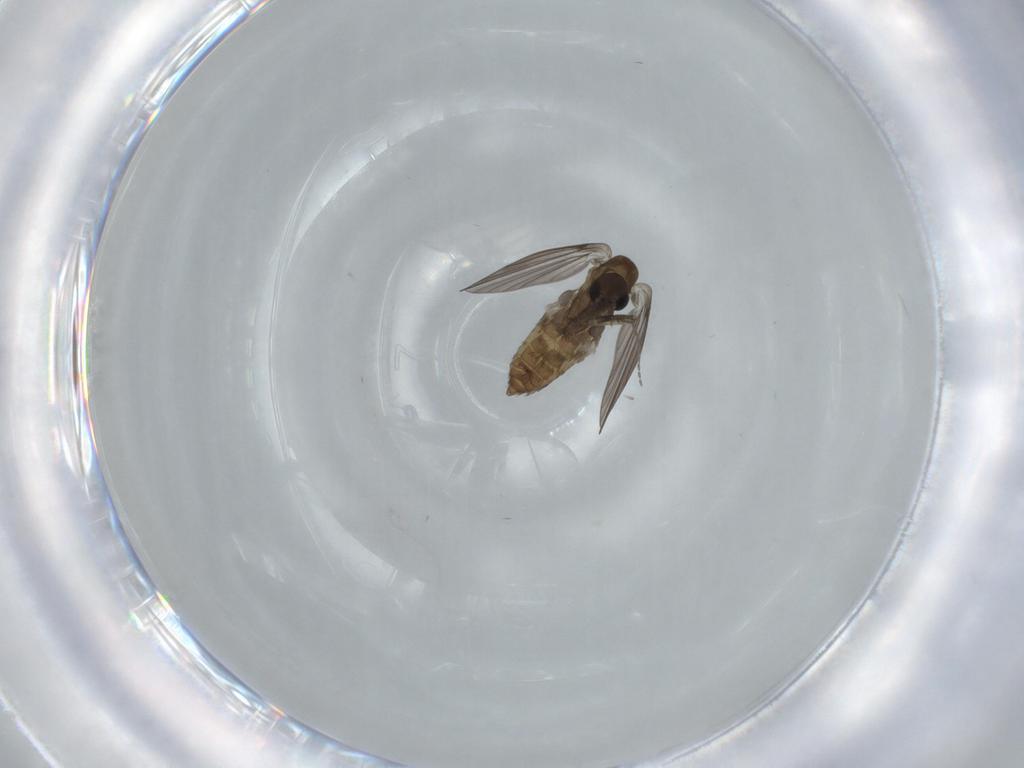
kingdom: Animalia
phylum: Arthropoda
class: Insecta
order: Diptera
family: Psychodidae
